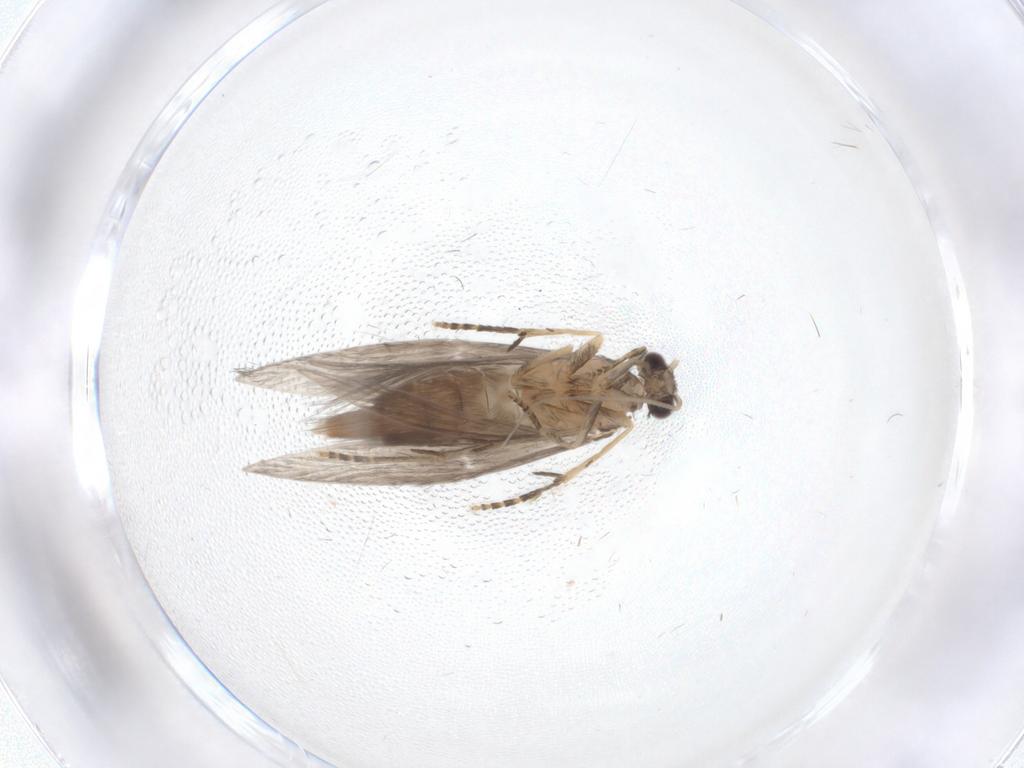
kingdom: Animalia
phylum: Arthropoda
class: Insecta
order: Trichoptera
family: Hydroptilidae
